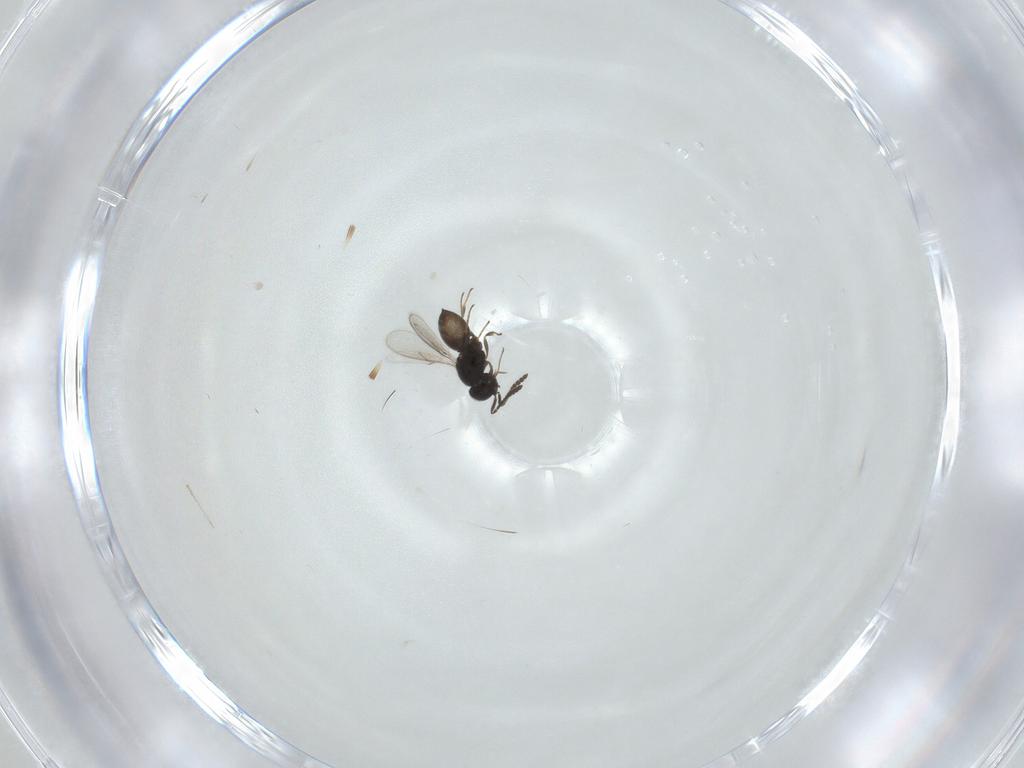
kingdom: Animalia
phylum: Arthropoda
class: Insecta
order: Hymenoptera
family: Scelionidae
